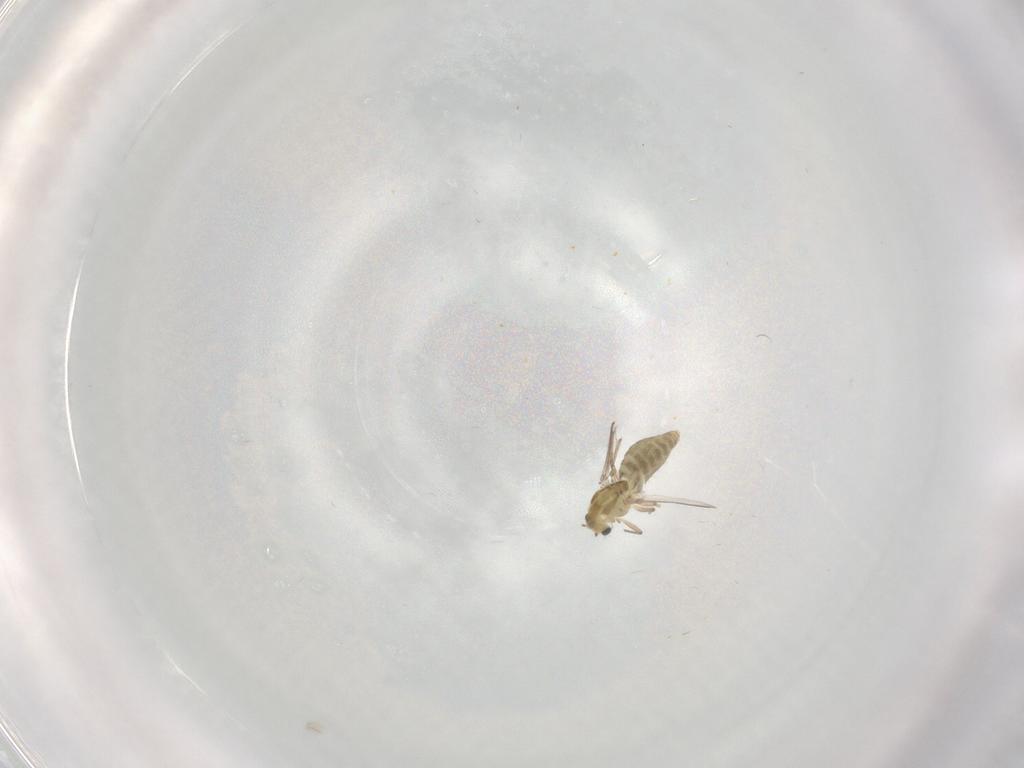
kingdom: Animalia
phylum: Arthropoda
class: Insecta
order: Diptera
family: Chironomidae
